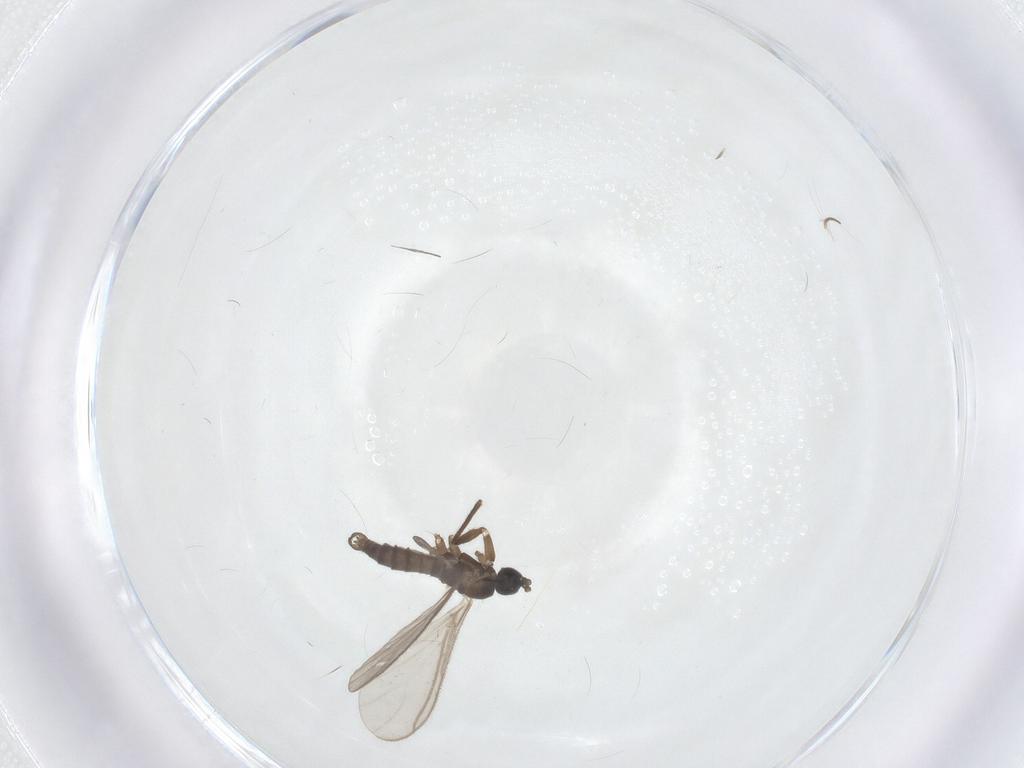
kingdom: Animalia
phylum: Arthropoda
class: Insecta
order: Diptera
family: Sciaridae
